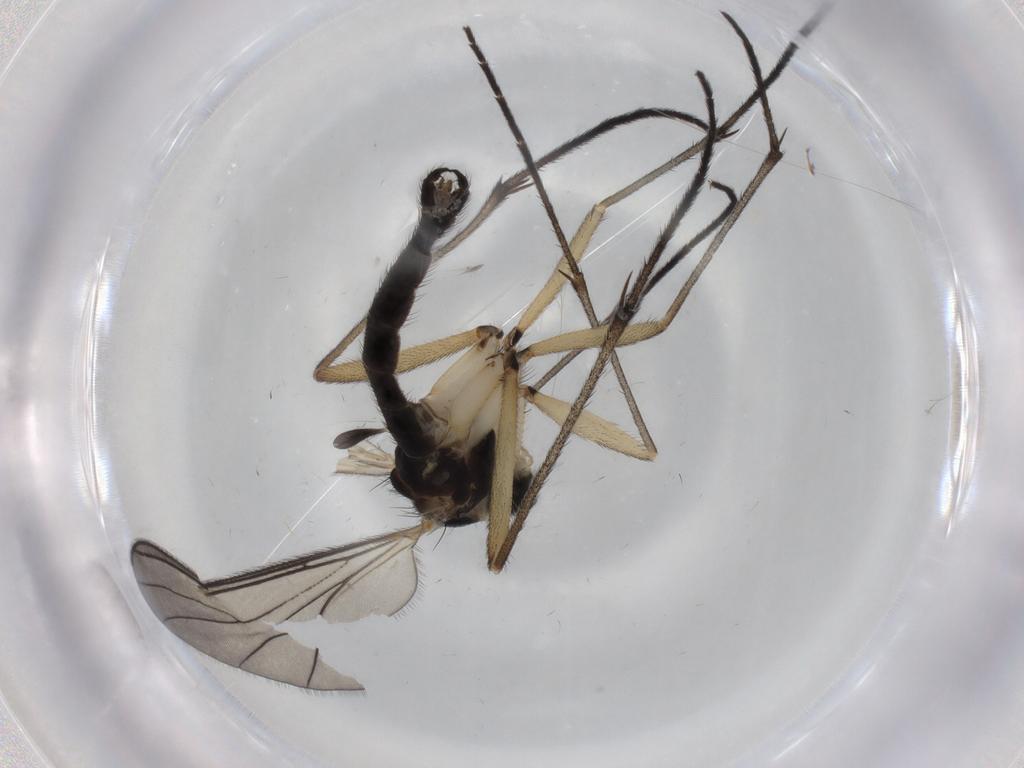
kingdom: Animalia
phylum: Arthropoda
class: Insecta
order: Diptera
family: Sciaridae
